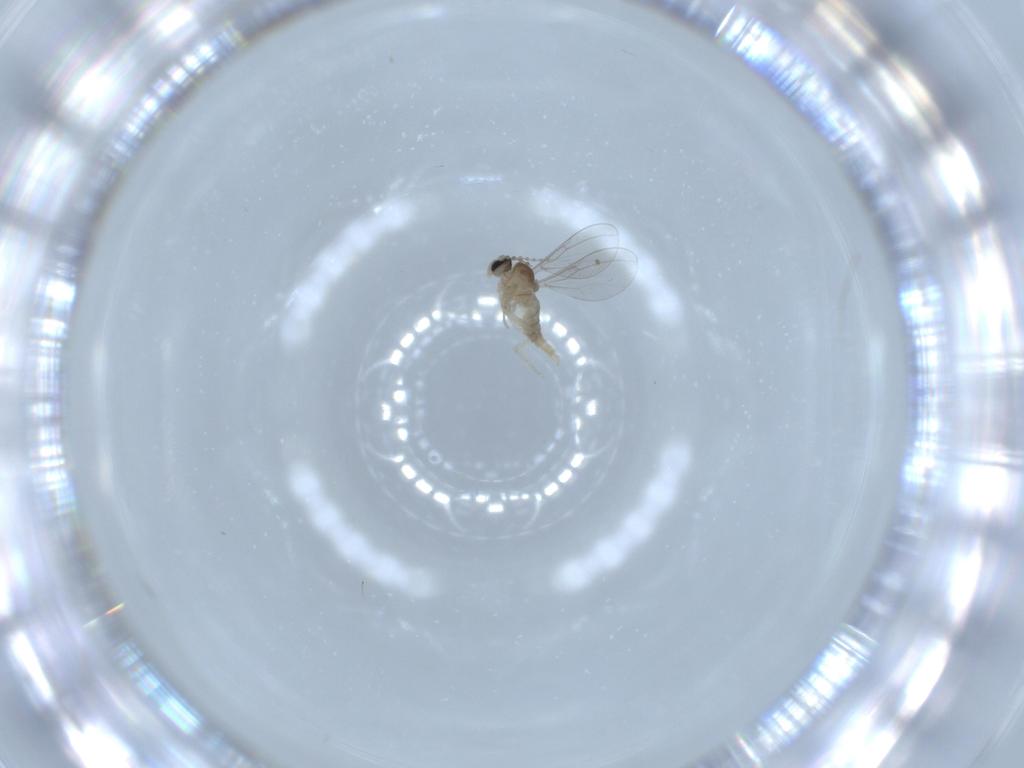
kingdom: Animalia
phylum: Arthropoda
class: Insecta
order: Diptera
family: Cecidomyiidae
